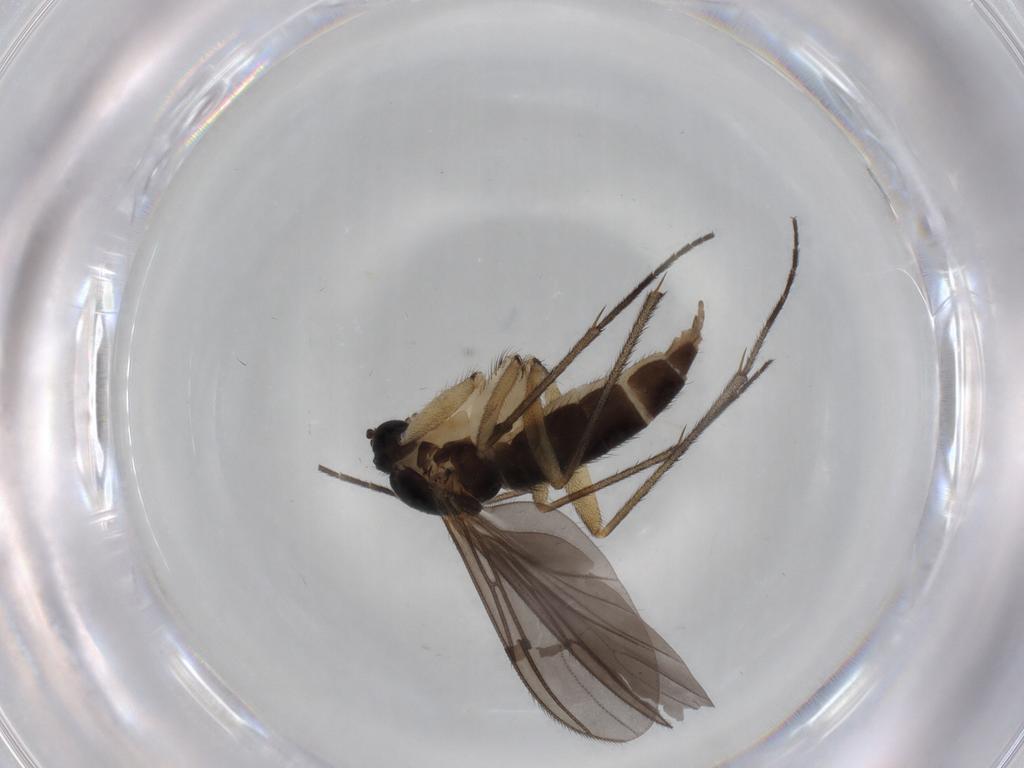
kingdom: Animalia
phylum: Arthropoda
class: Insecta
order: Diptera
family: Sciaridae
